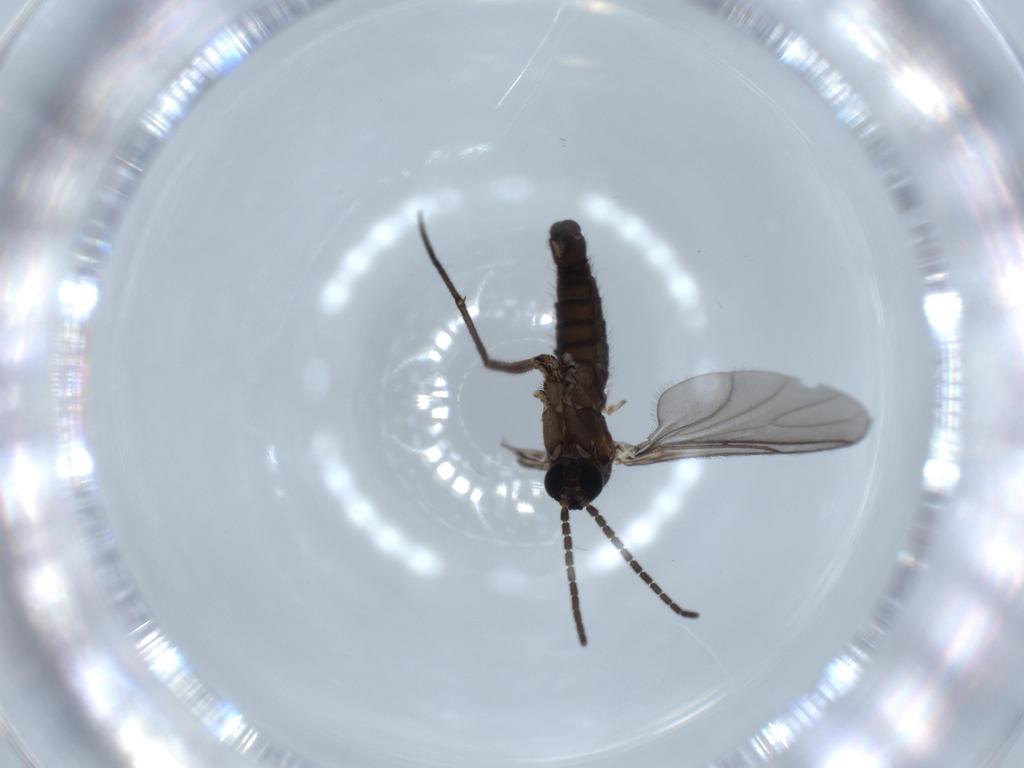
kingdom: Animalia
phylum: Arthropoda
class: Insecta
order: Diptera
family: Sciaridae
